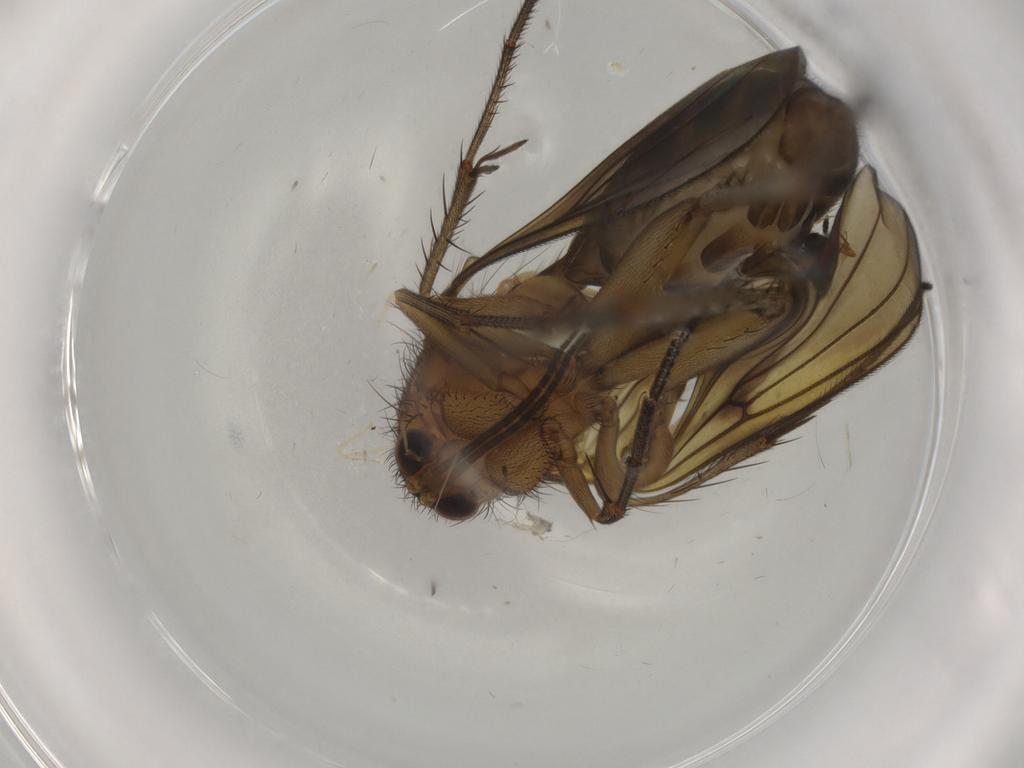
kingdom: Animalia
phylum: Arthropoda
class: Insecta
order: Diptera
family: Mycetophilidae
